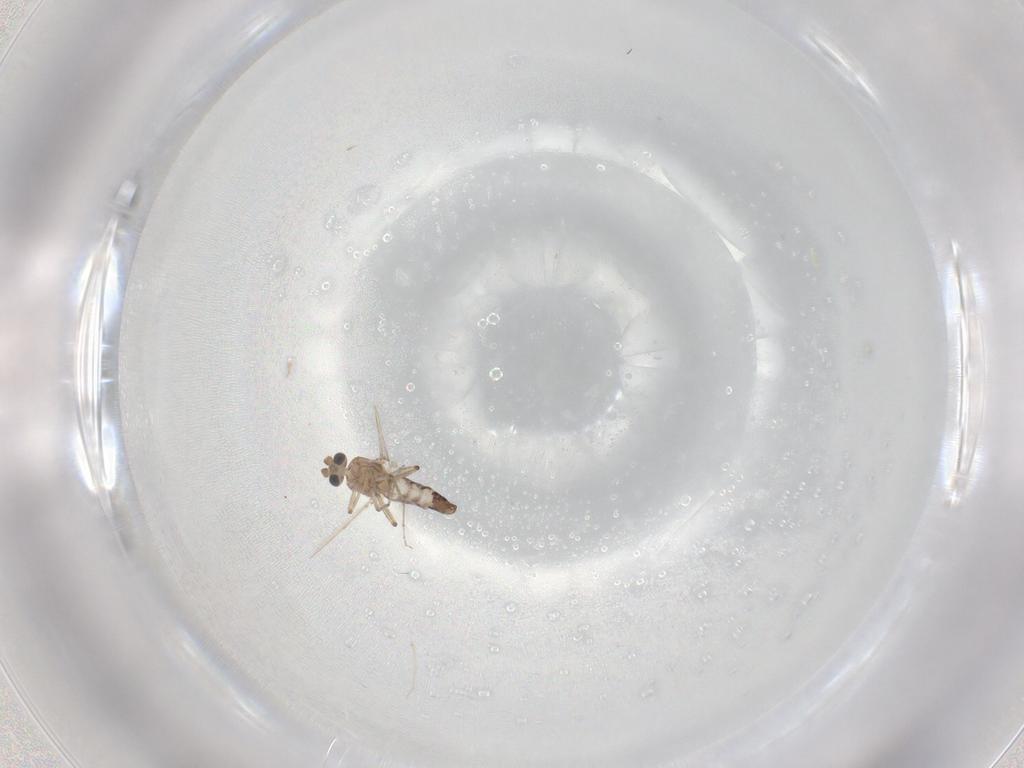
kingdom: Animalia
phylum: Arthropoda
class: Insecta
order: Diptera
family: Ceratopogonidae
